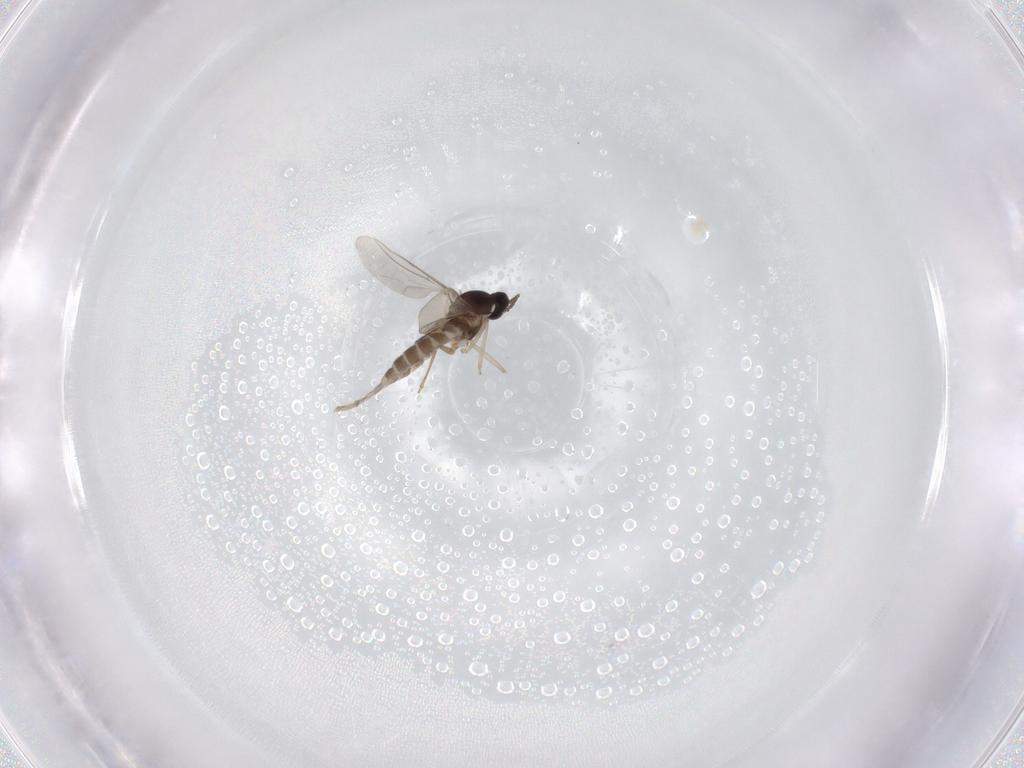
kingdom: Animalia
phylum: Arthropoda
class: Insecta
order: Diptera
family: Cecidomyiidae
